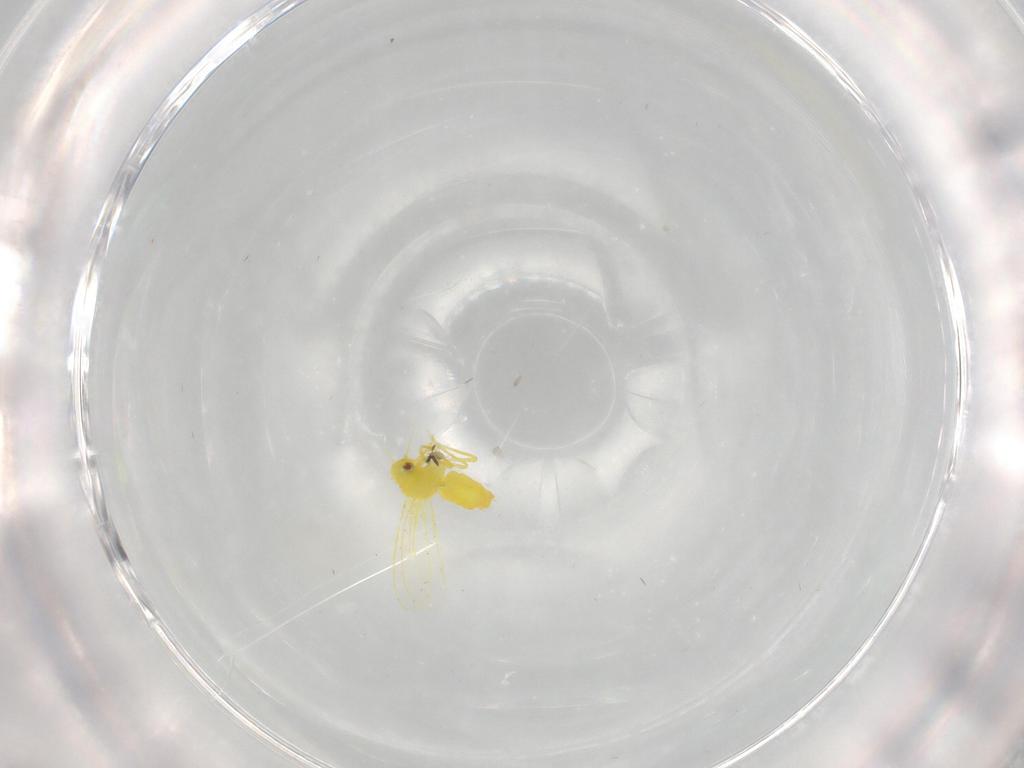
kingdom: Animalia
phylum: Arthropoda
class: Insecta
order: Hemiptera
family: Aleyrodidae
